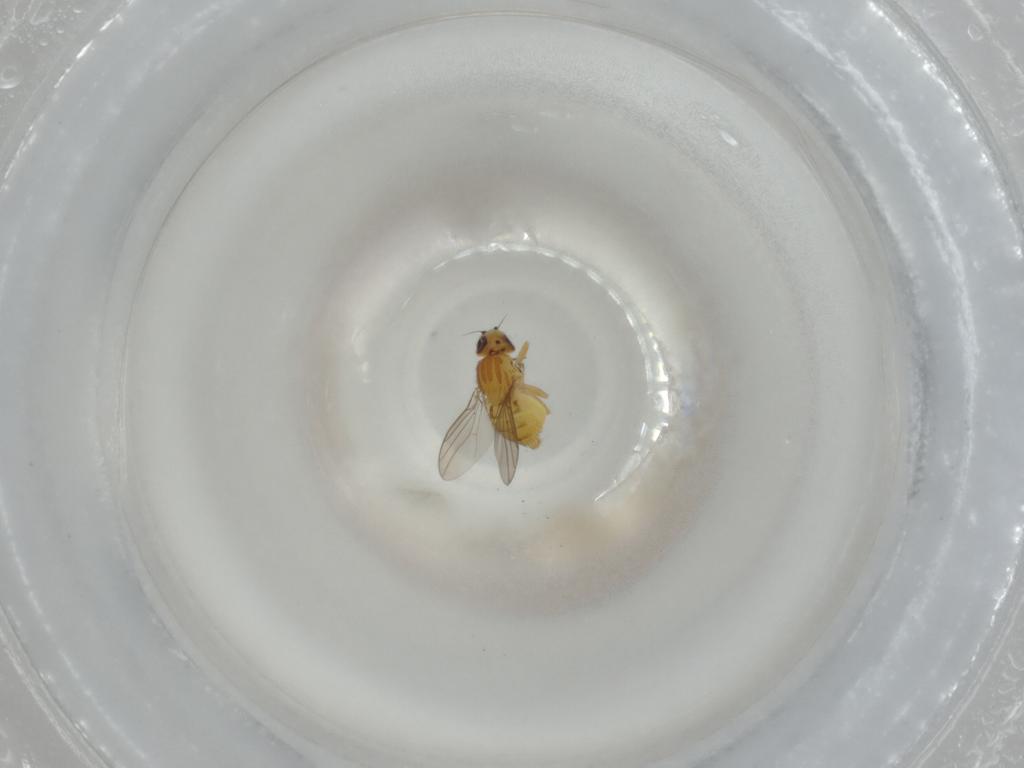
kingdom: Animalia
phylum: Arthropoda
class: Insecta
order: Diptera
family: Chloropidae
